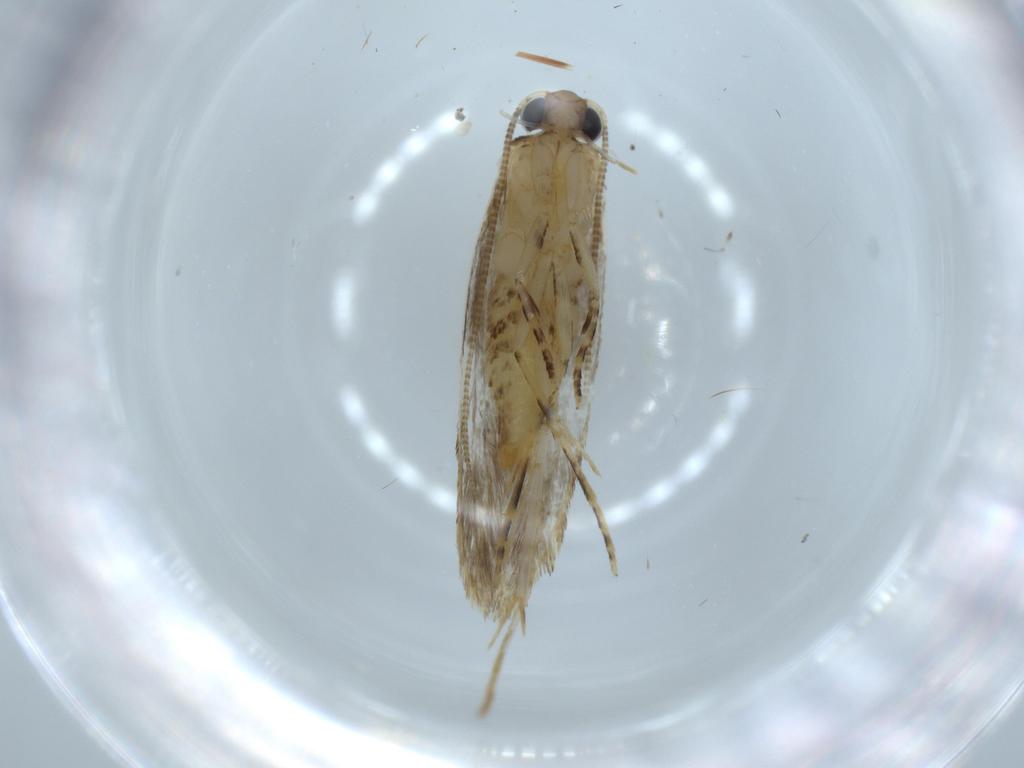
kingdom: Animalia
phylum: Arthropoda
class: Insecta
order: Lepidoptera
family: Tineidae
